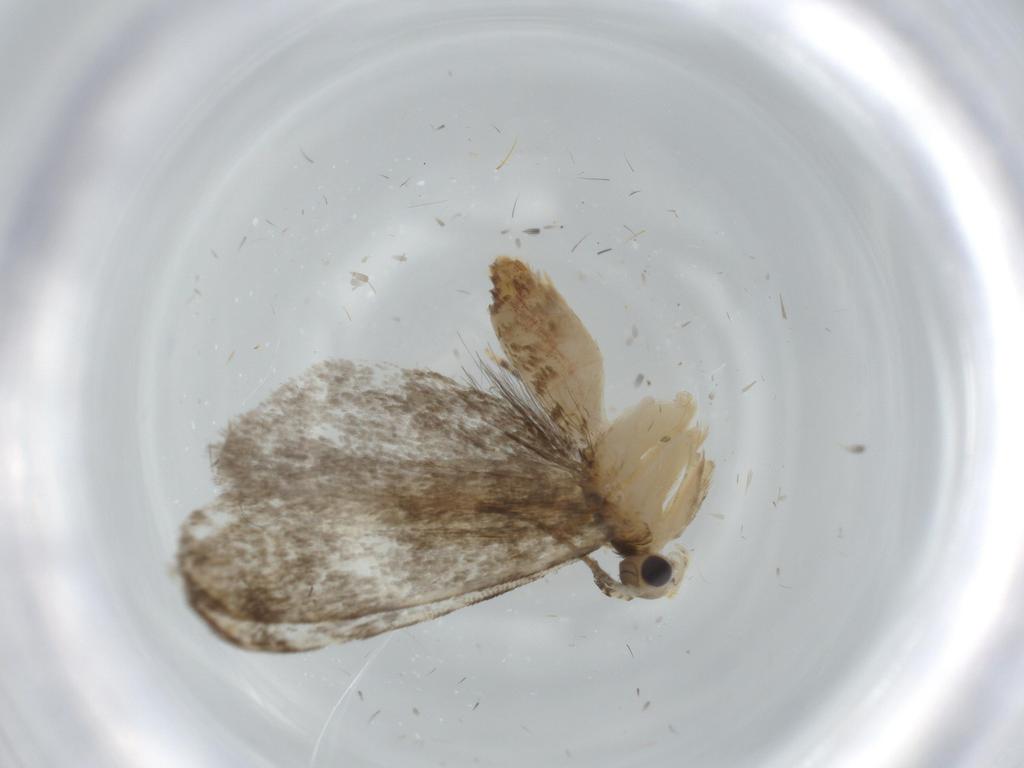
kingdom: Animalia
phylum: Arthropoda
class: Insecta
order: Lepidoptera
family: Tineidae
